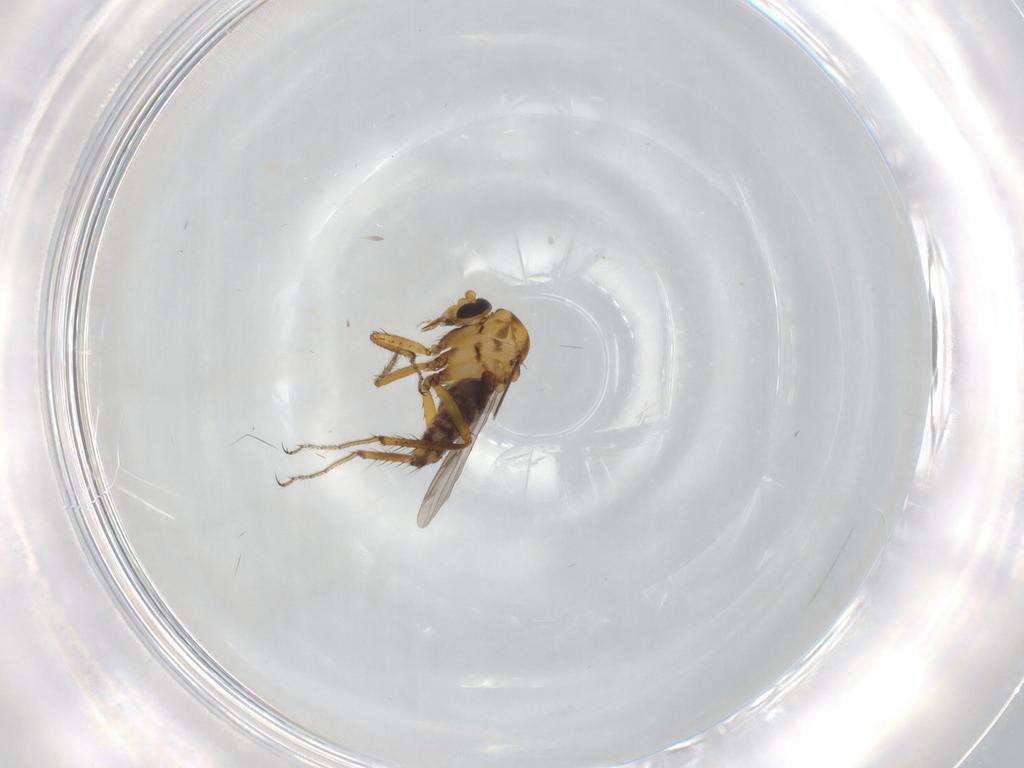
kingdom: Animalia
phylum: Arthropoda
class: Insecta
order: Diptera
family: Ceratopogonidae
